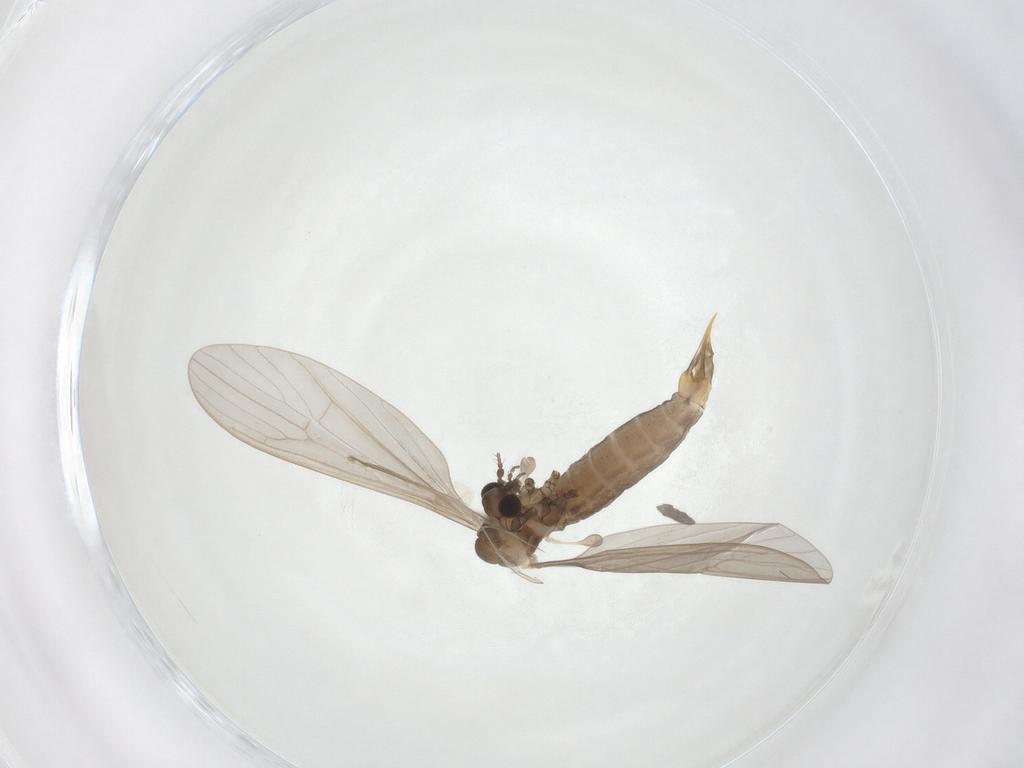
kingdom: Animalia
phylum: Arthropoda
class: Insecta
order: Diptera
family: Limoniidae
